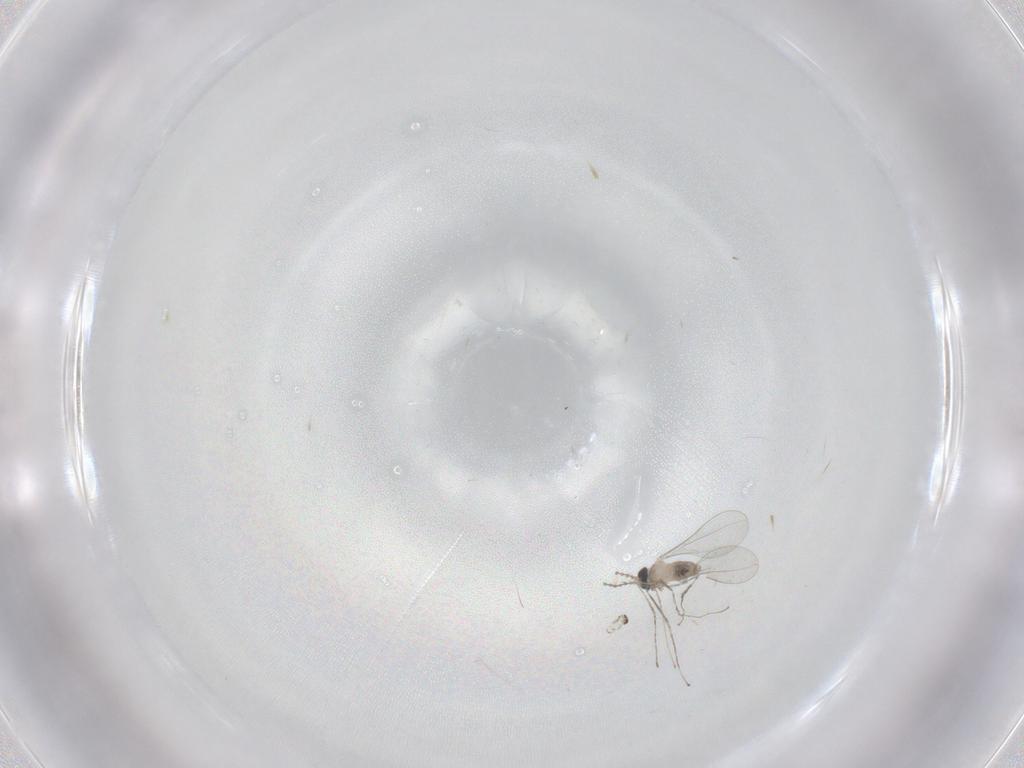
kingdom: Animalia
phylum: Arthropoda
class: Insecta
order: Diptera
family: Cecidomyiidae
